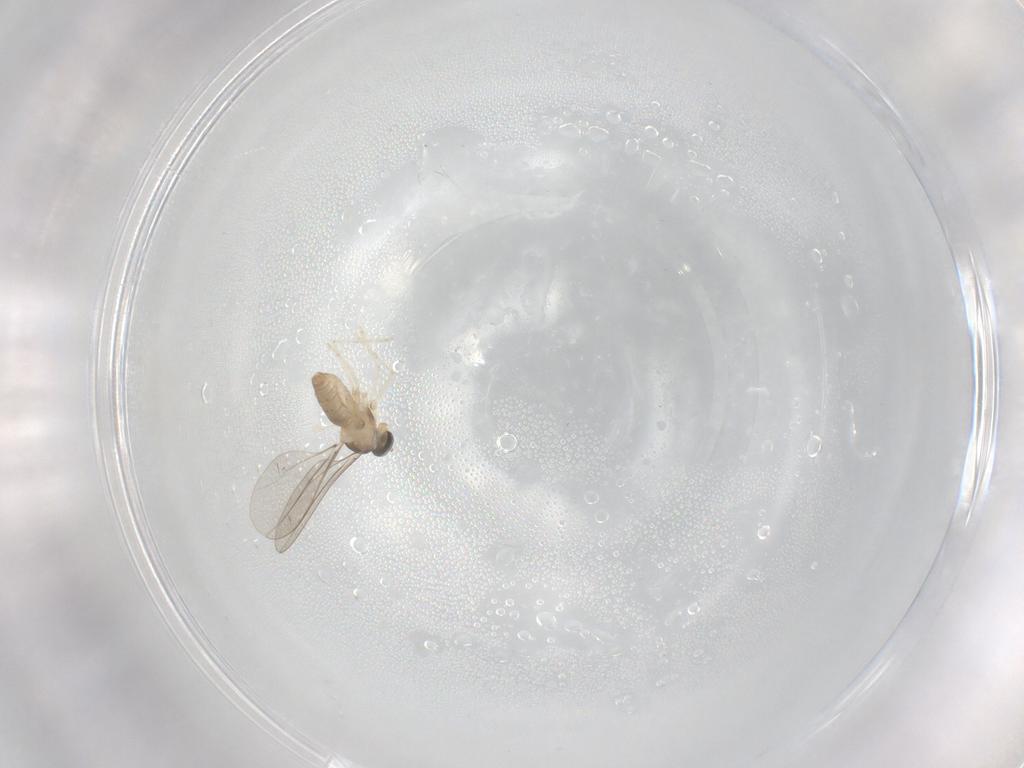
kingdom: Animalia
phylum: Arthropoda
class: Insecta
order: Diptera
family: Cecidomyiidae
